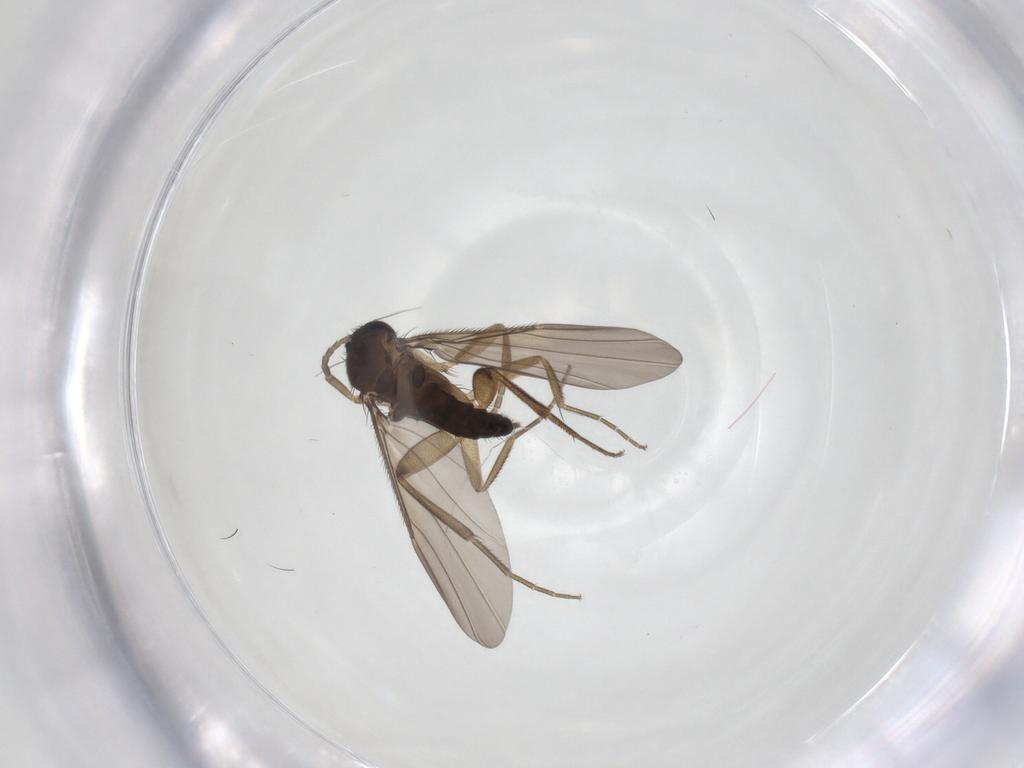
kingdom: Animalia
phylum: Arthropoda
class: Insecta
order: Diptera
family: Phoridae
